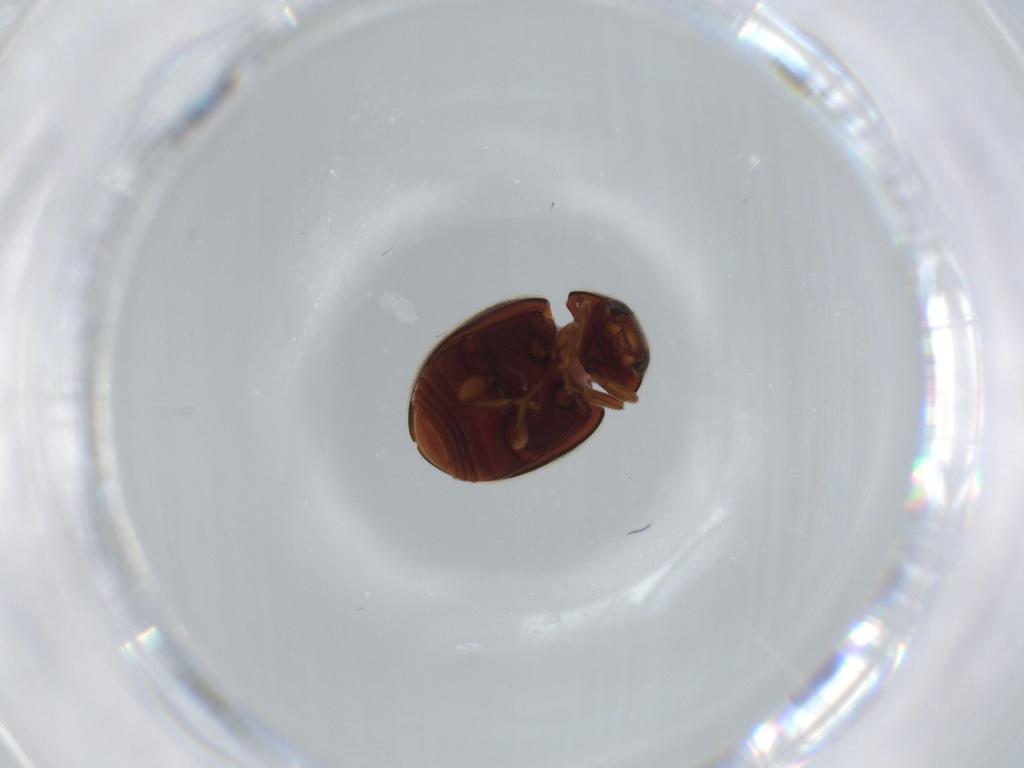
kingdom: Animalia
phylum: Arthropoda
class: Insecta
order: Coleoptera
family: Coccinellidae
